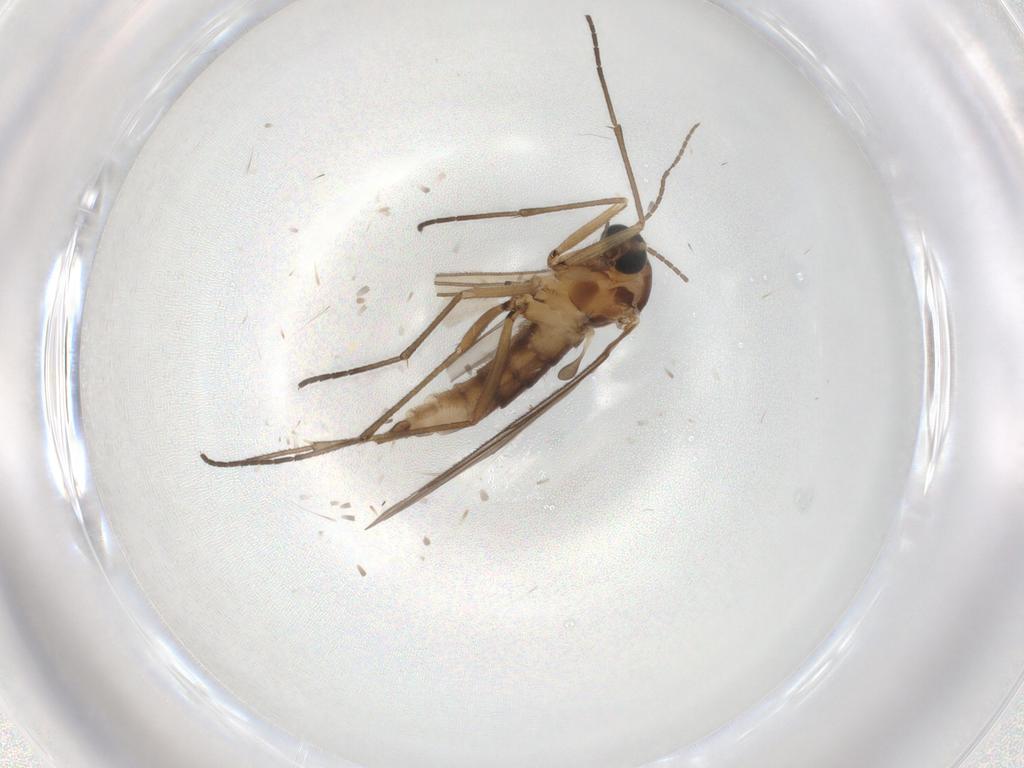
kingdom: Animalia
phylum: Arthropoda
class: Insecta
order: Diptera
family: Sciaridae
